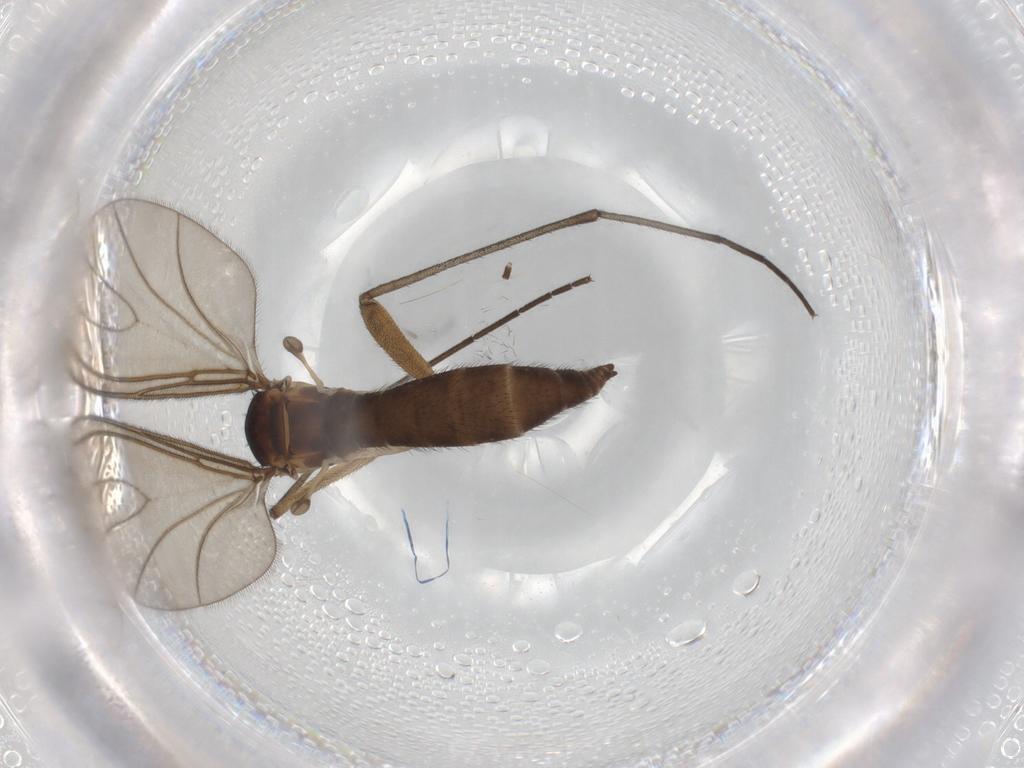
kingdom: Animalia
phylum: Arthropoda
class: Insecta
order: Diptera
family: Sciaridae
